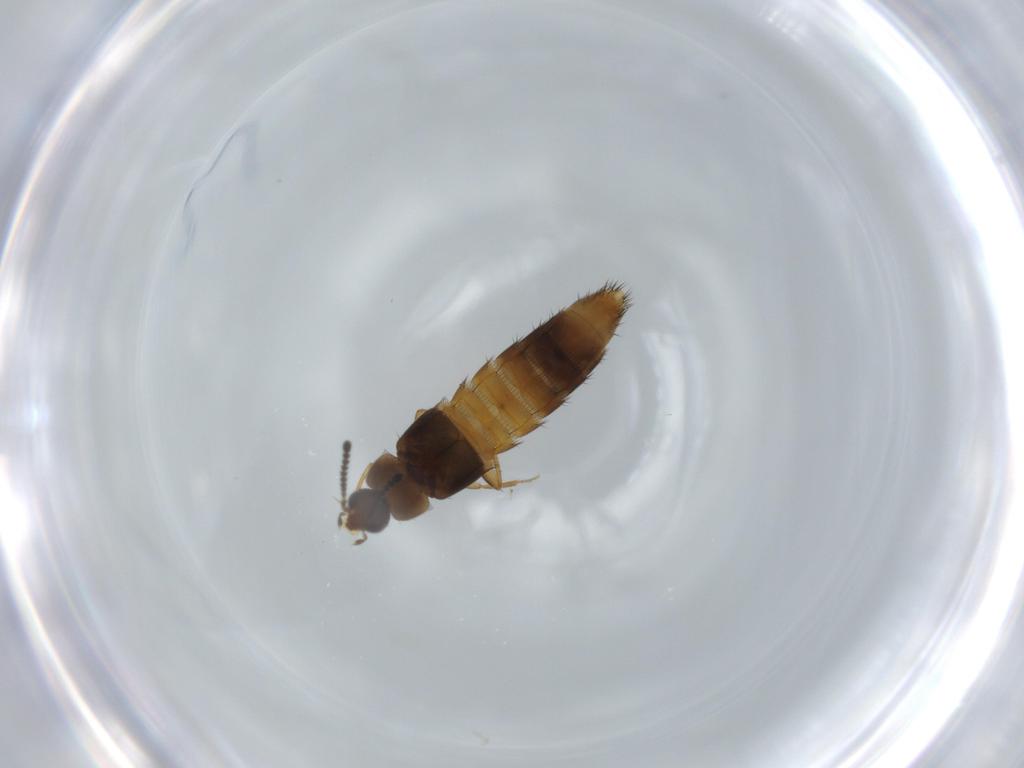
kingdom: Animalia
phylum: Arthropoda
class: Insecta
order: Coleoptera
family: Staphylinidae
